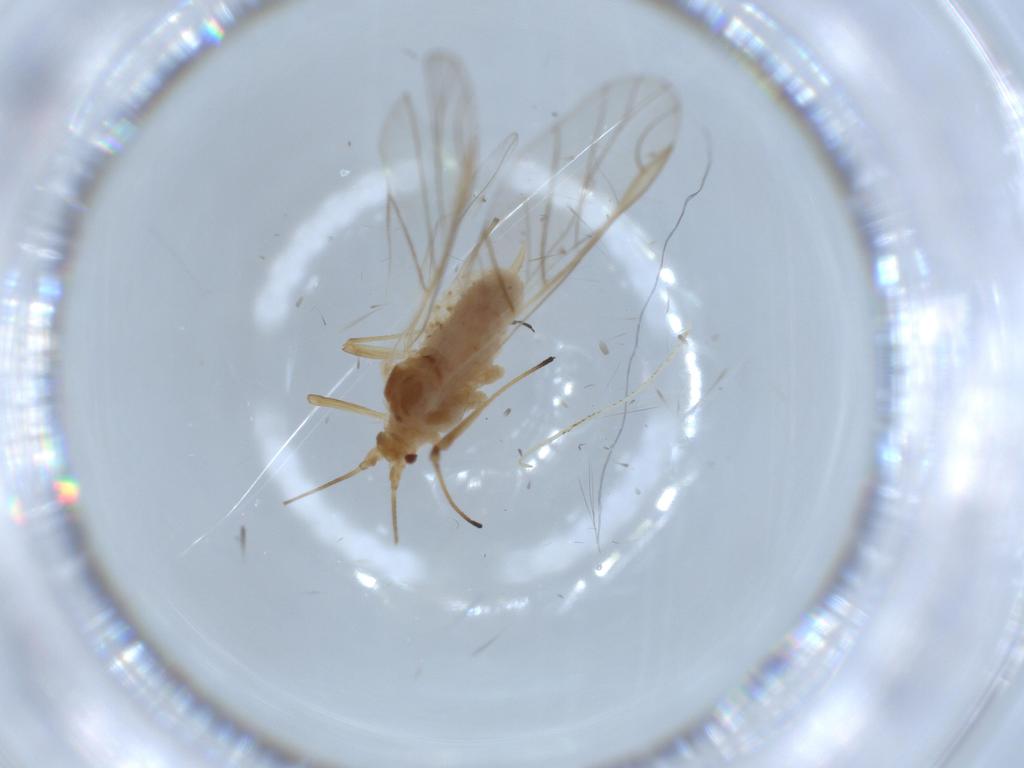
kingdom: Animalia
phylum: Arthropoda
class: Insecta
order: Hemiptera
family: Aphididae
